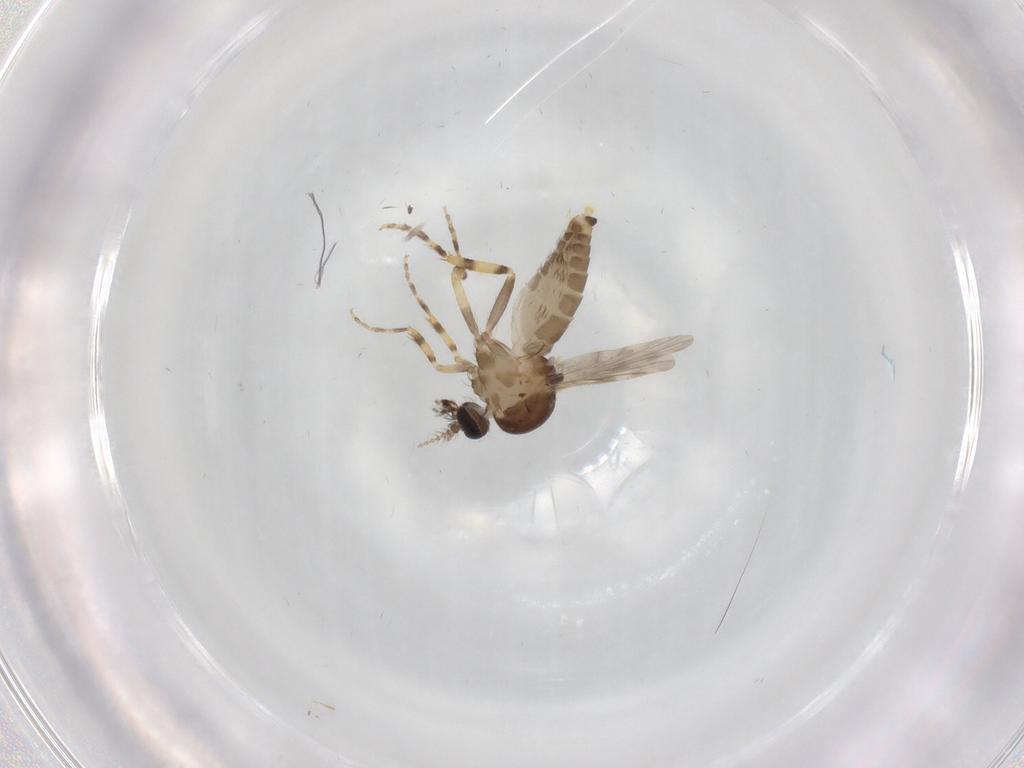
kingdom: Animalia
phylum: Arthropoda
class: Insecta
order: Diptera
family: Ceratopogonidae
